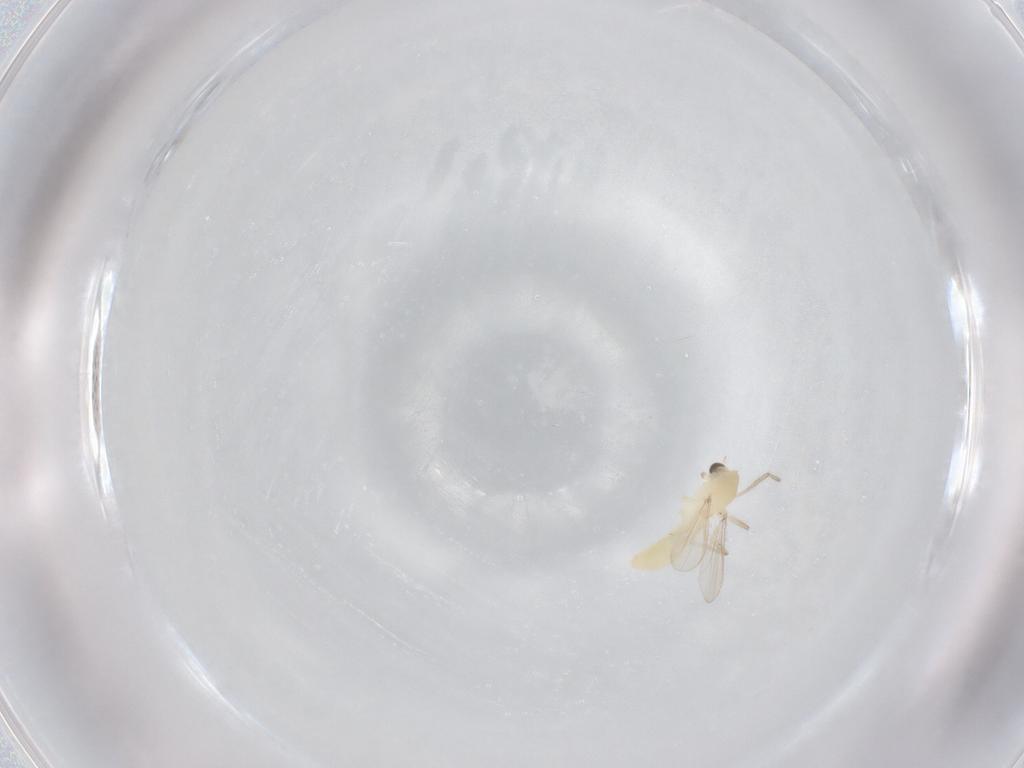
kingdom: Animalia
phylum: Arthropoda
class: Insecta
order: Diptera
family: Chironomidae
